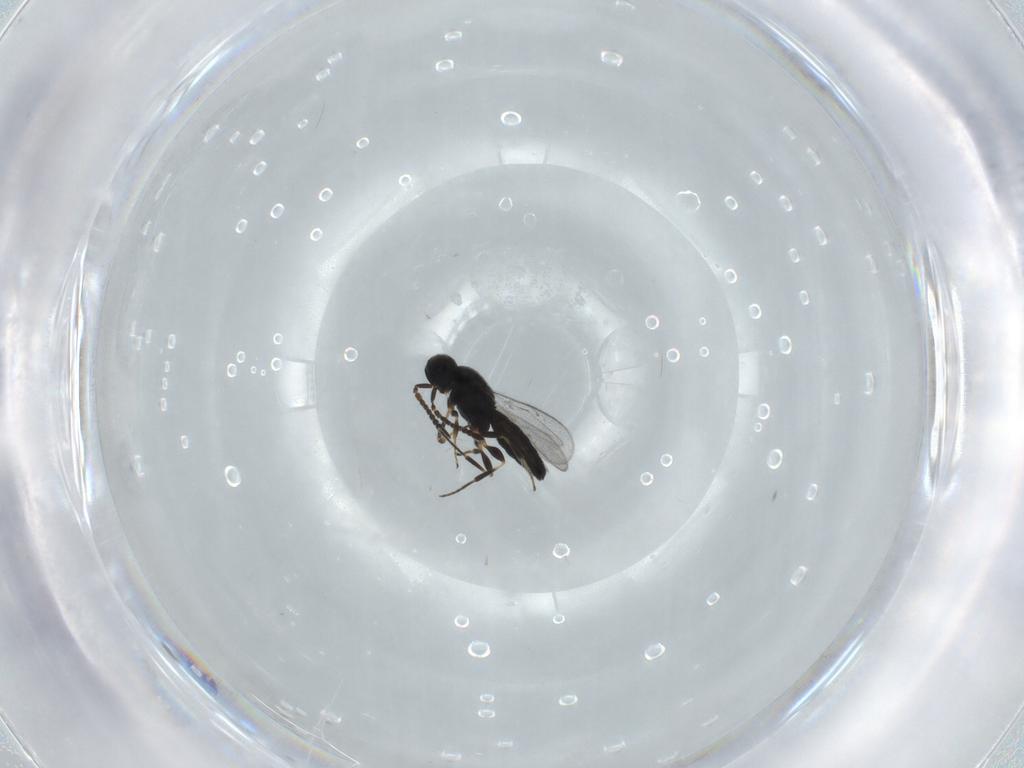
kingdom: Animalia
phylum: Arthropoda
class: Insecta
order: Hymenoptera
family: Scelionidae
